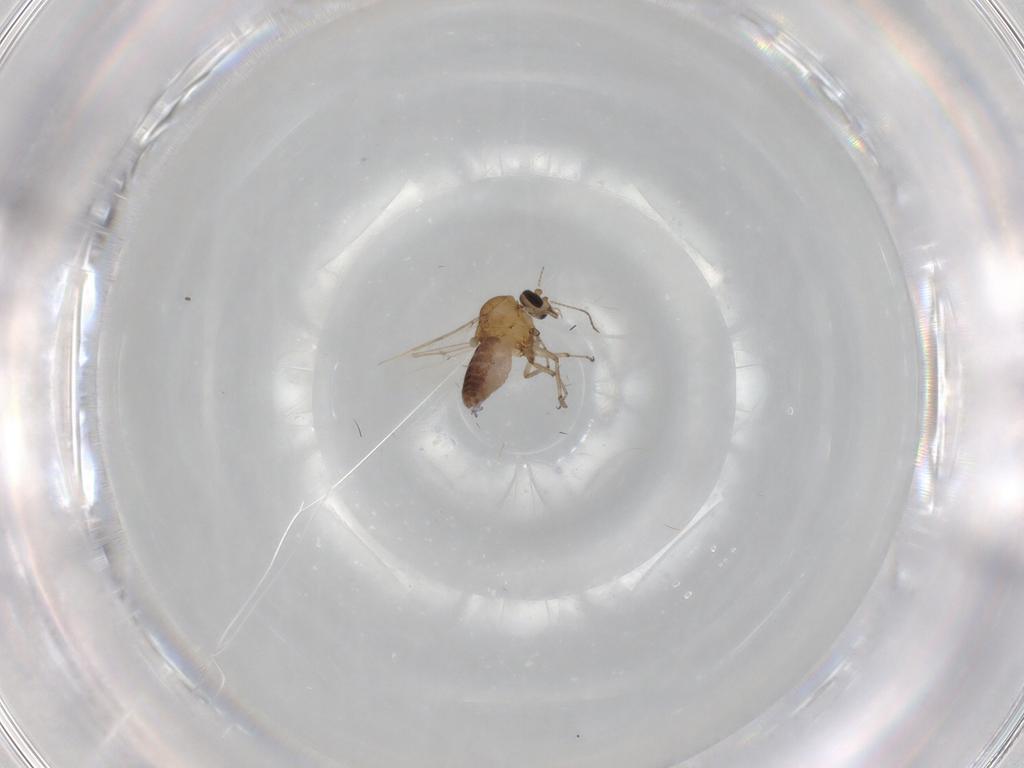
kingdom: Animalia
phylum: Arthropoda
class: Insecta
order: Diptera
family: Ceratopogonidae
